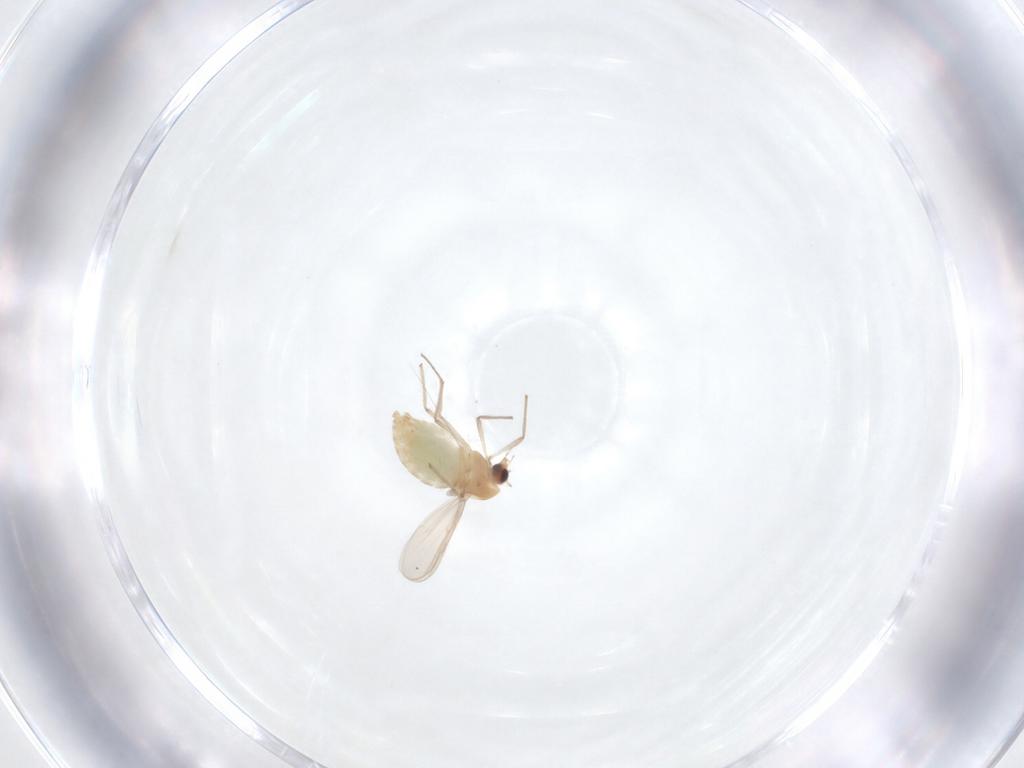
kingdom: Animalia
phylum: Arthropoda
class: Insecta
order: Diptera
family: Chironomidae
